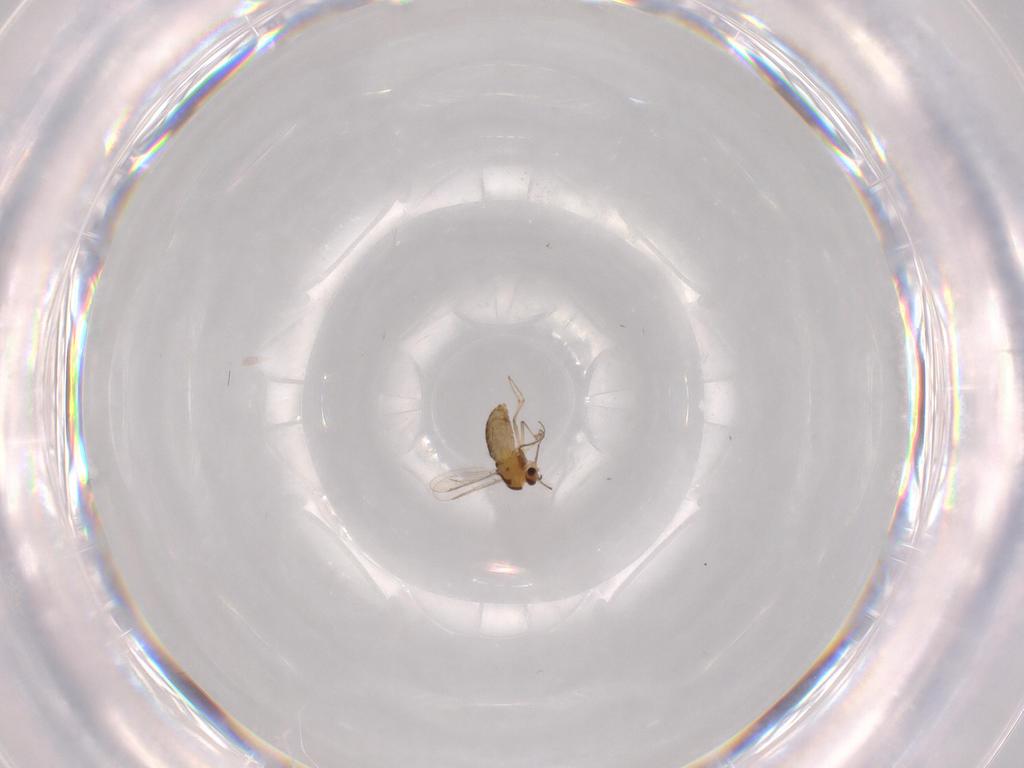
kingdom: Animalia
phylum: Arthropoda
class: Insecta
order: Diptera
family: Chironomidae
